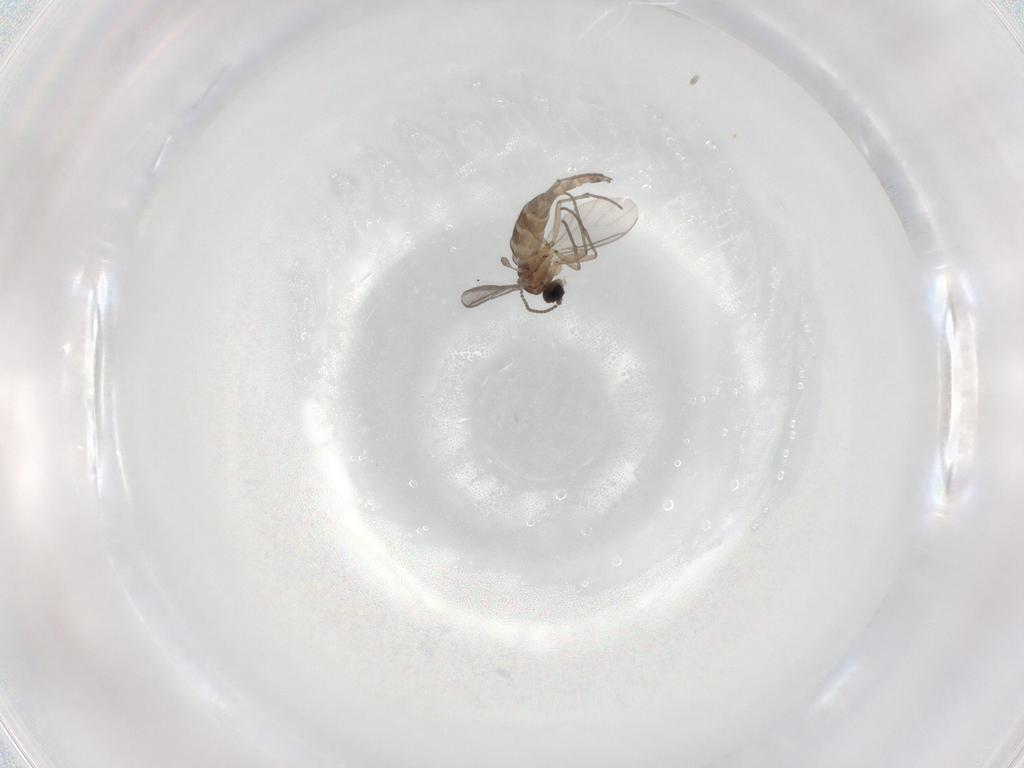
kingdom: Animalia
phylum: Arthropoda
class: Insecta
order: Diptera
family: Sciaridae
